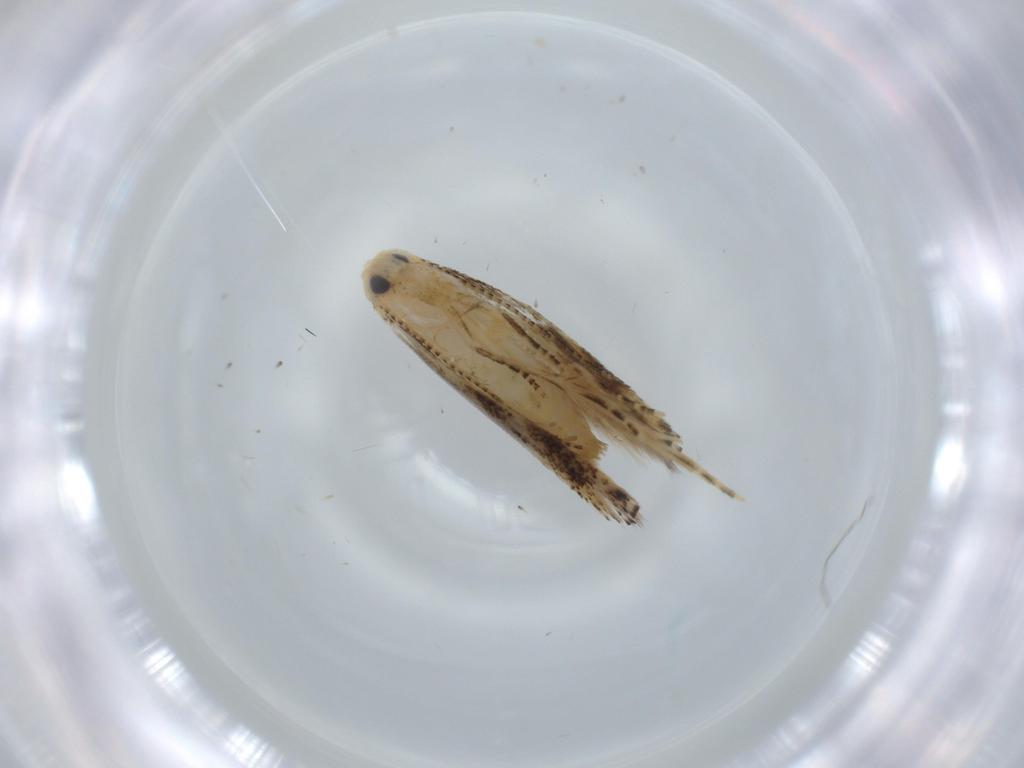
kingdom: Animalia
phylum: Arthropoda
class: Insecta
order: Lepidoptera
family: Bucculatricidae
